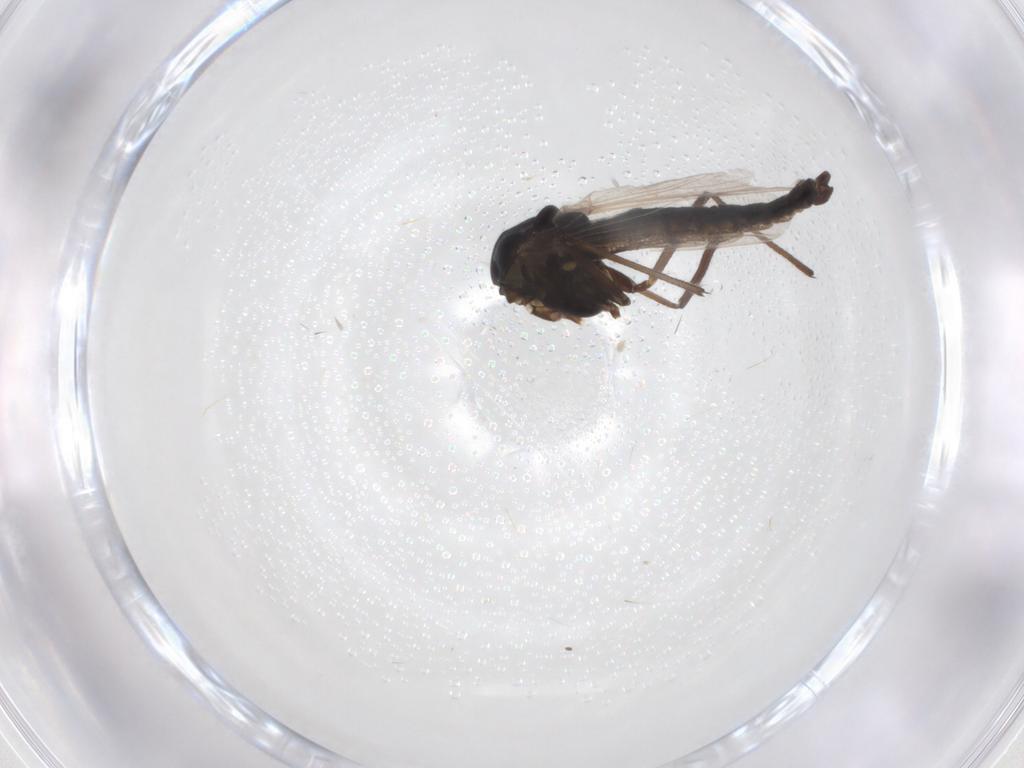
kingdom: Animalia
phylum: Arthropoda
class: Insecta
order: Diptera
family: Chironomidae
